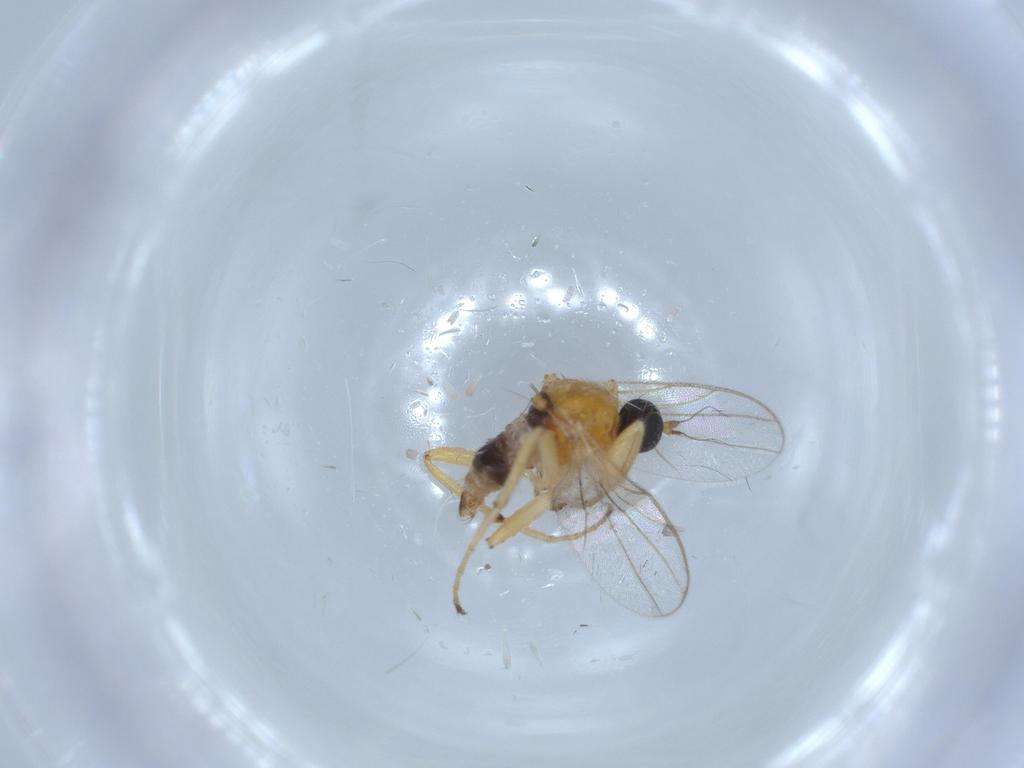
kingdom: Animalia
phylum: Arthropoda
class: Insecta
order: Diptera
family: Hybotidae
